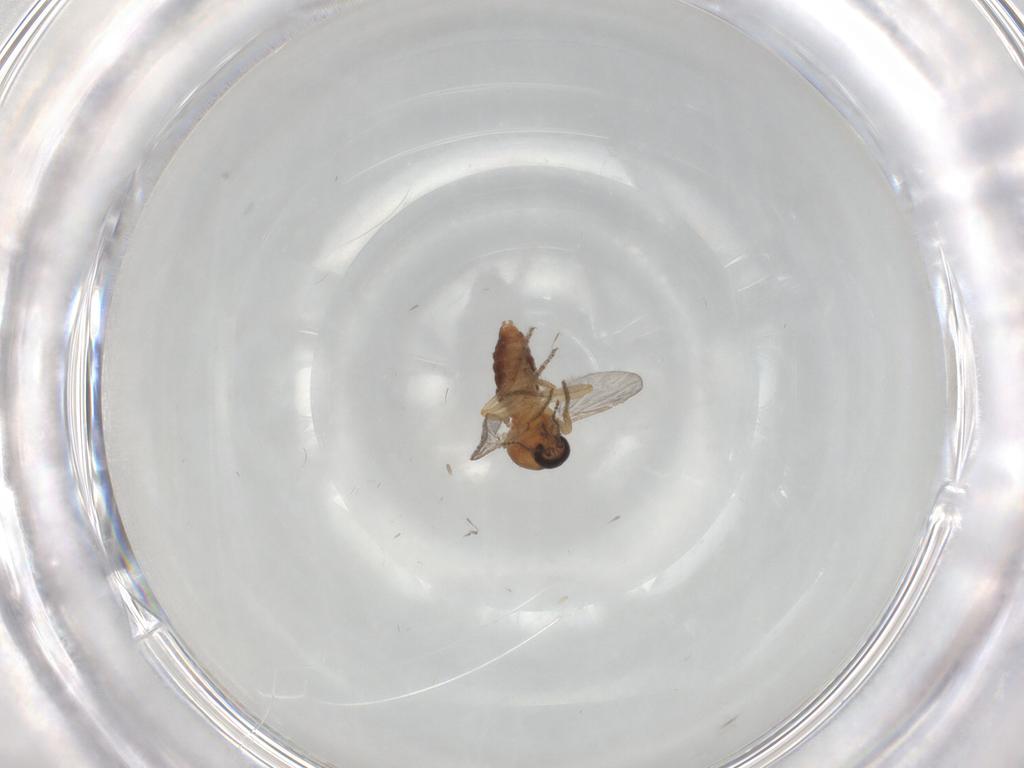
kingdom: Animalia
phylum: Arthropoda
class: Insecta
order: Diptera
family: Ceratopogonidae
